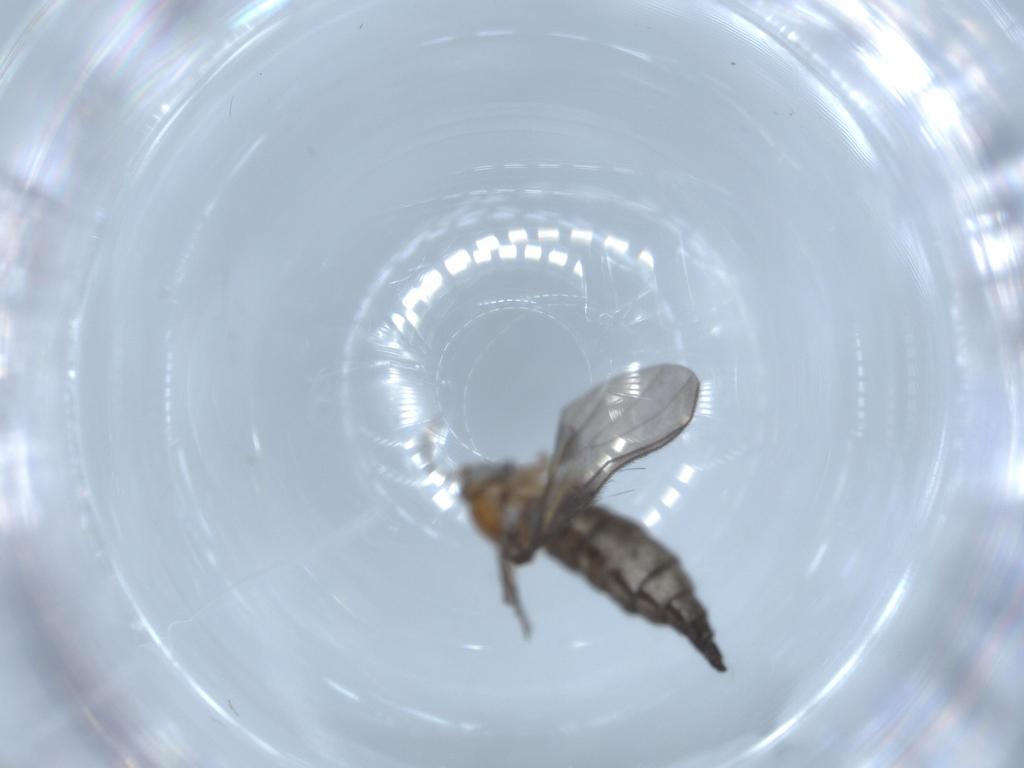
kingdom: Animalia
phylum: Arthropoda
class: Insecta
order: Diptera
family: Sciaridae
